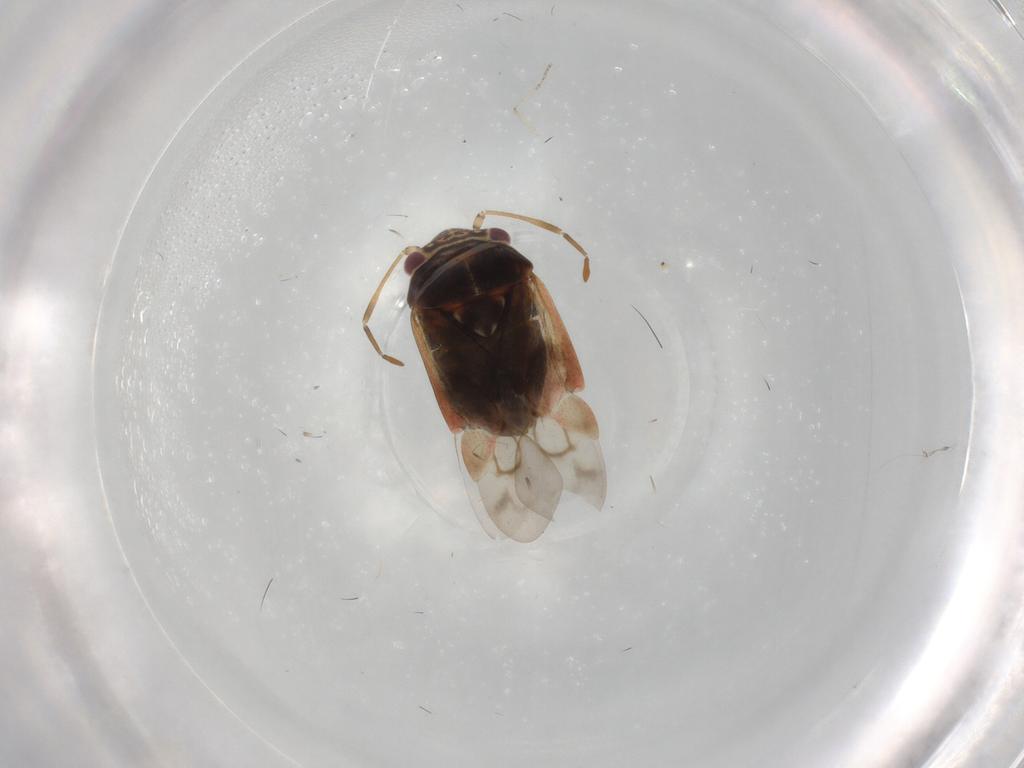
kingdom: Animalia
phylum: Arthropoda
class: Insecta
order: Hemiptera
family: Miridae
